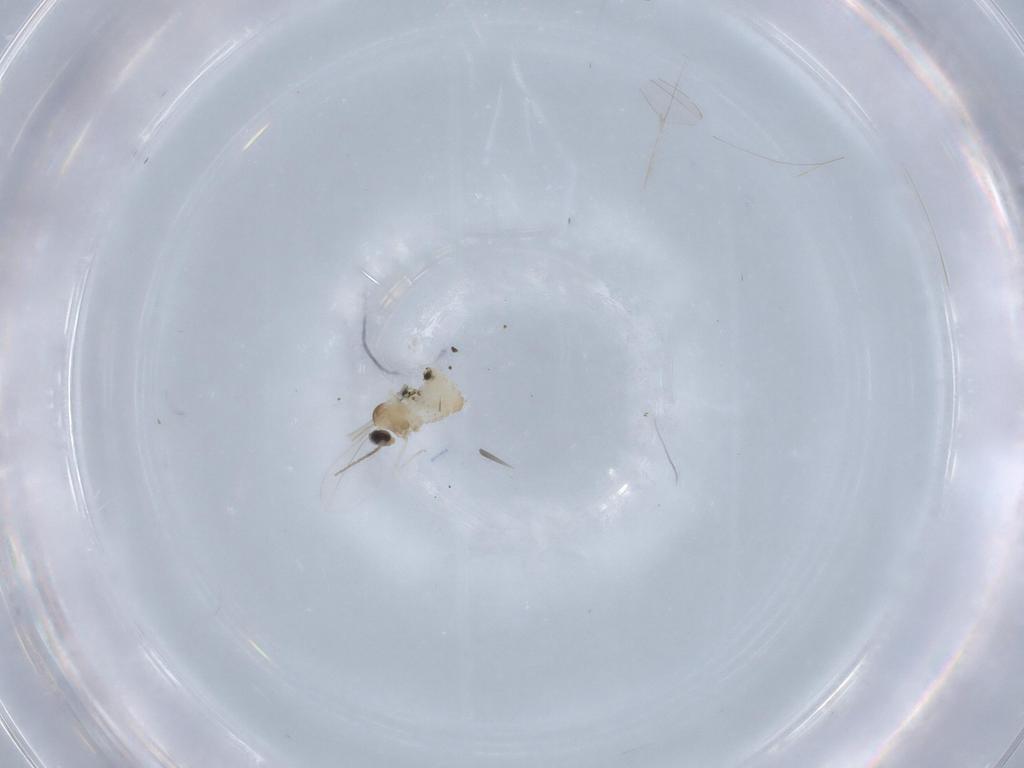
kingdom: Animalia
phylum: Arthropoda
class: Insecta
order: Diptera
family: Cecidomyiidae
